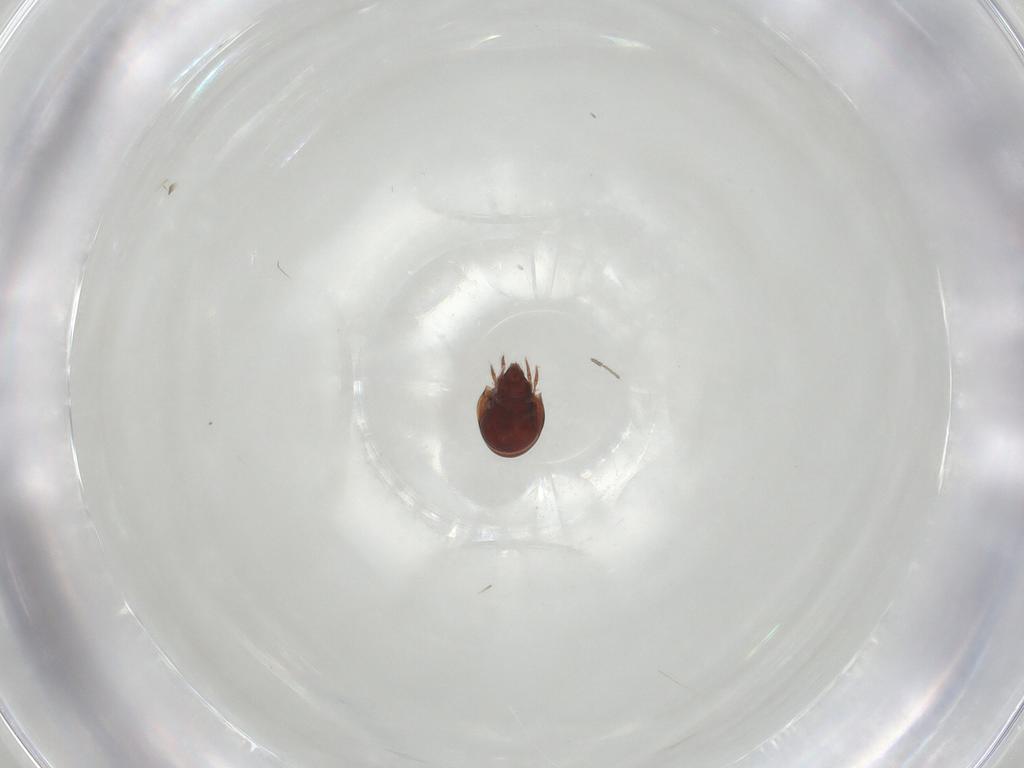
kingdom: Animalia
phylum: Arthropoda
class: Arachnida
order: Sarcoptiformes
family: Ceratozetidae
